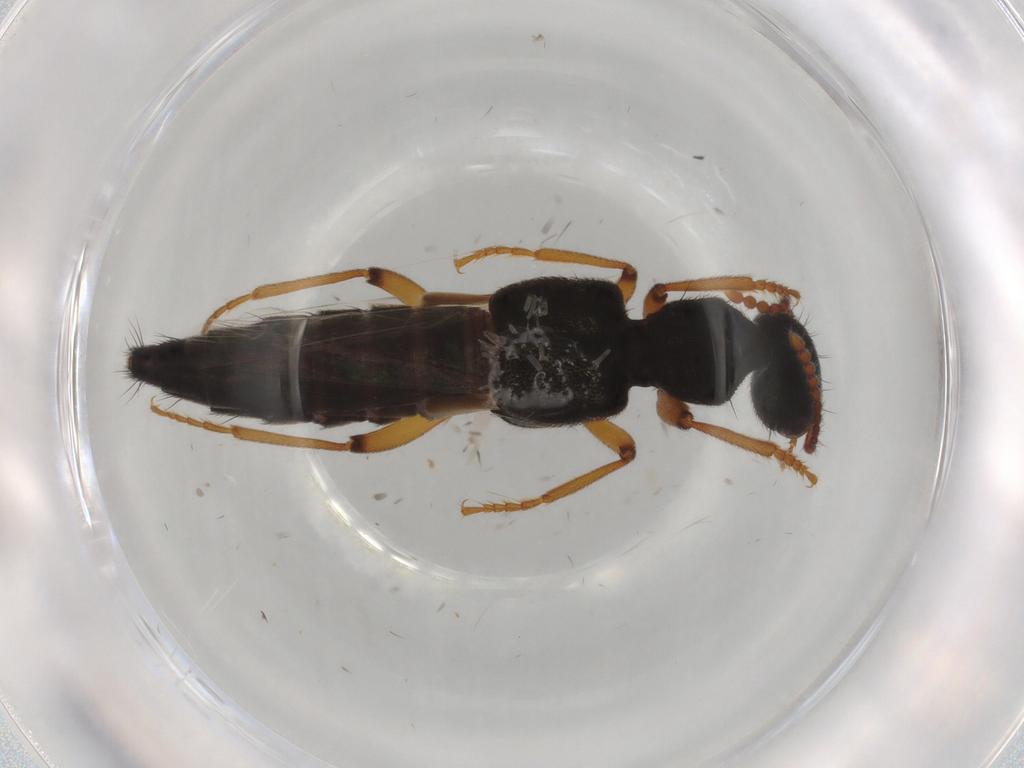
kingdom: Animalia
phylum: Arthropoda
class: Insecta
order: Coleoptera
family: Staphylinidae
